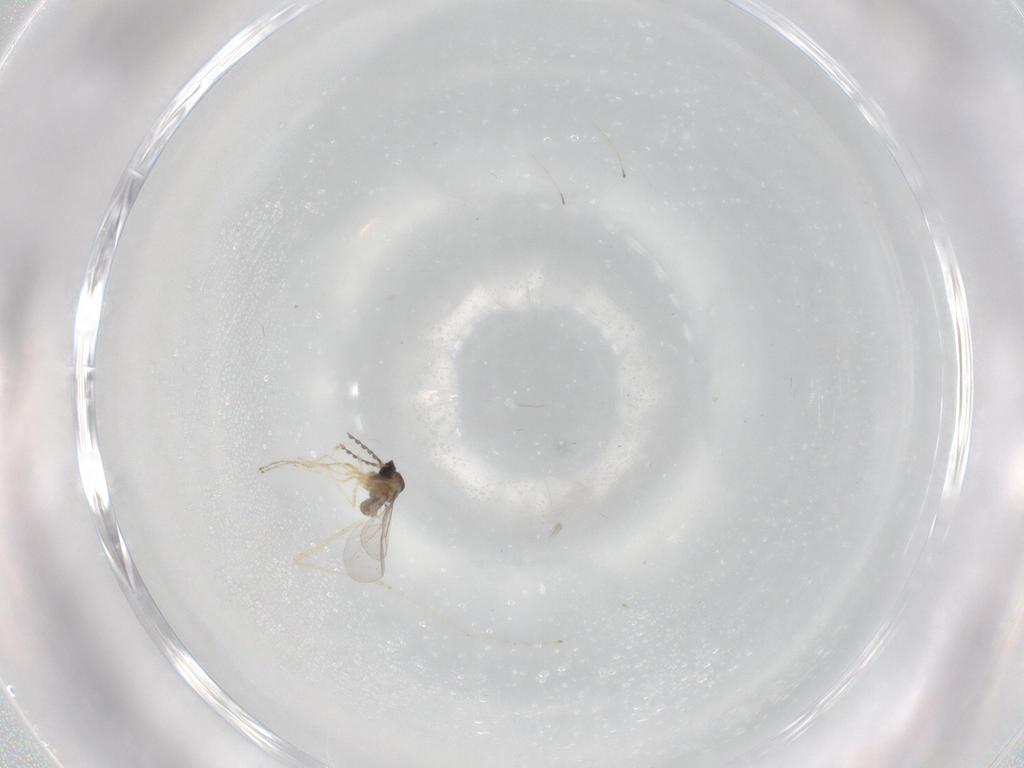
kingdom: Animalia
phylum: Arthropoda
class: Insecta
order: Diptera
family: Cecidomyiidae
